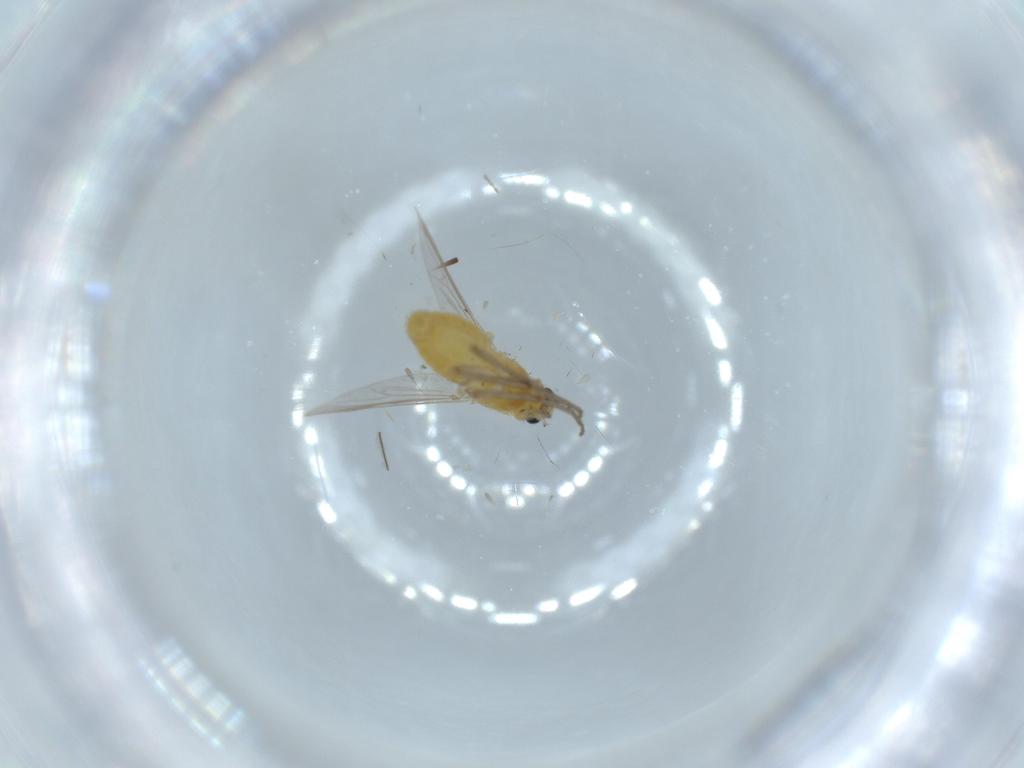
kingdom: Animalia
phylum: Arthropoda
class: Insecta
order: Diptera
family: Chironomidae
